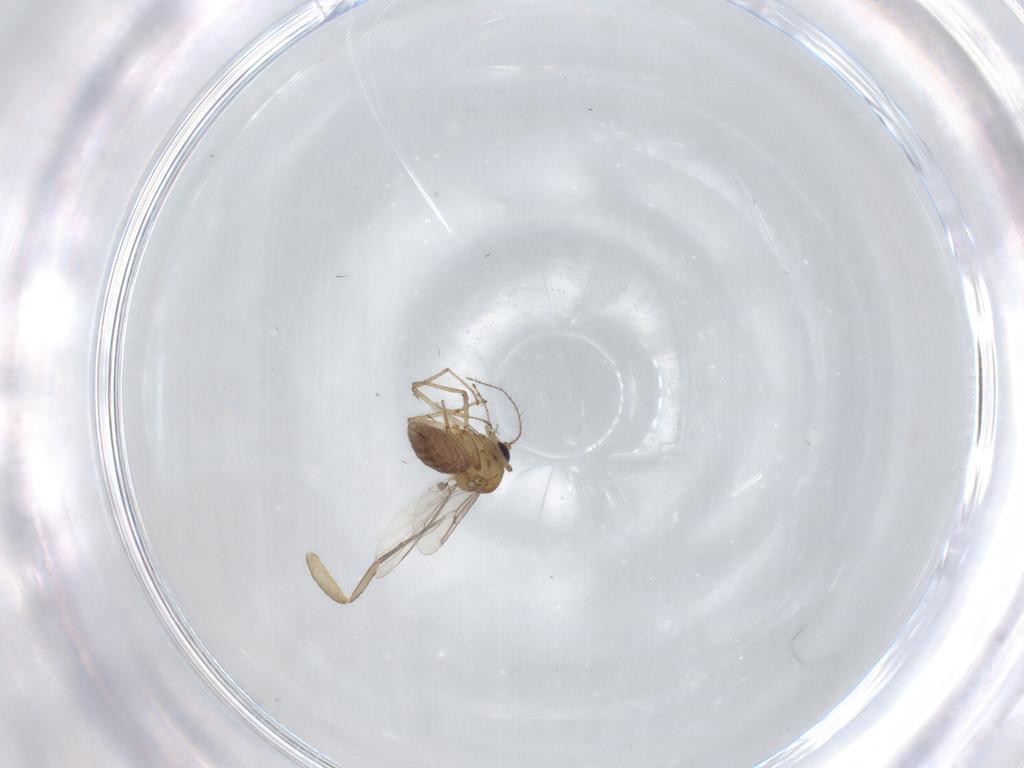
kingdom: Animalia
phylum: Arthropoda
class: Insecta
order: Diptera
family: Phoridae
